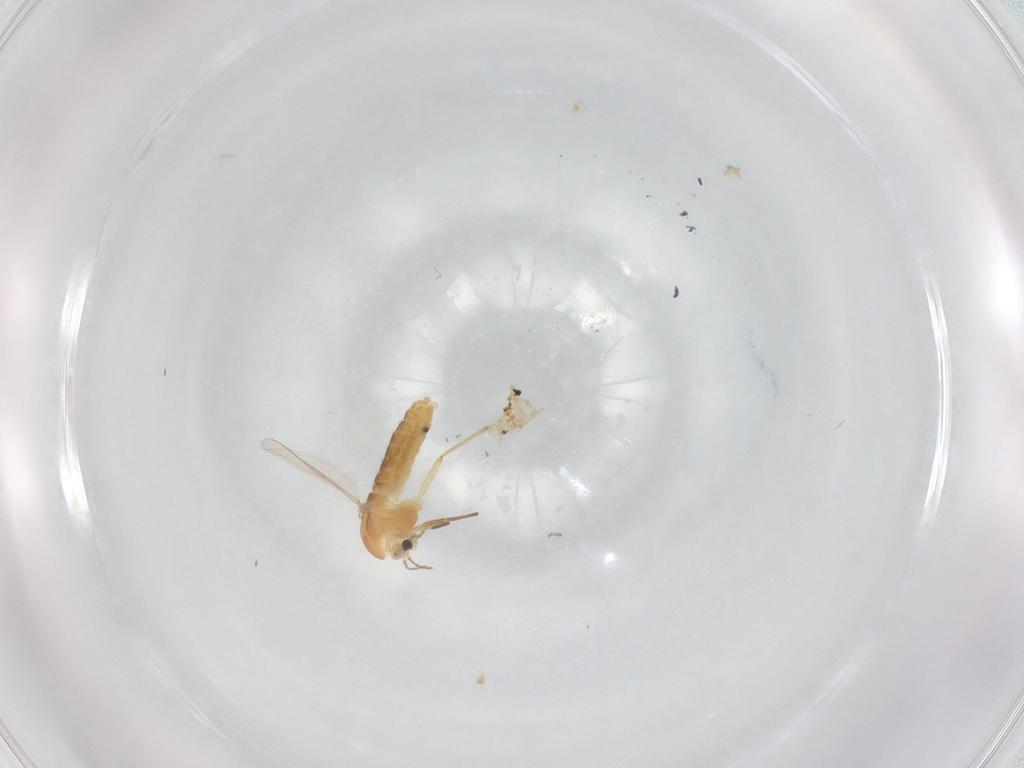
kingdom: Animalia
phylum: Arthropoda
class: Insecta
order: Diptera
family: Chironomidae
